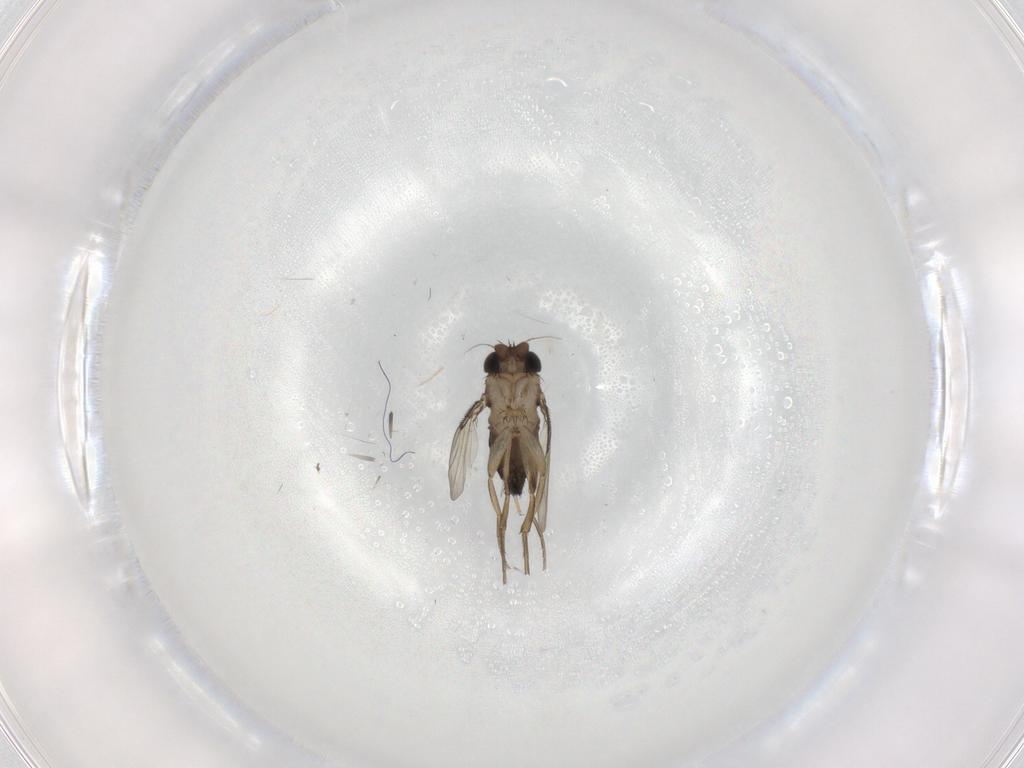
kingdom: Animalia
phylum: Arthropoda
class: Insecta
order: Diptera
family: Phoridae
